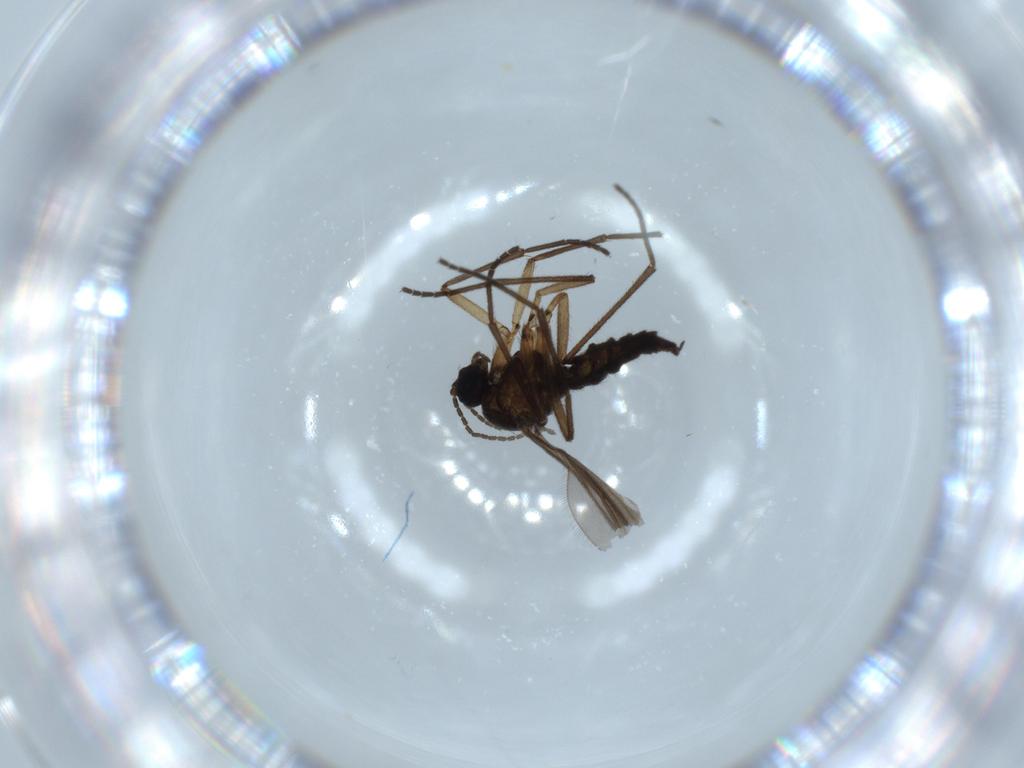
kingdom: Animalia
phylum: Arthropoda
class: Insecta
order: Diptera
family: Sciaridae
